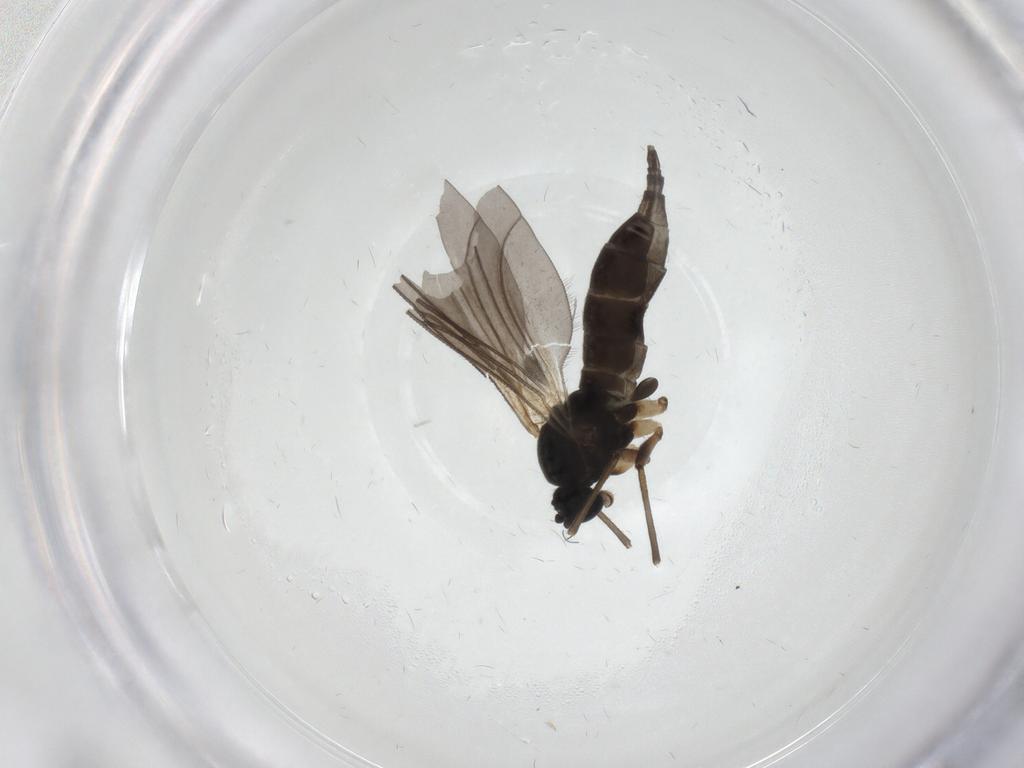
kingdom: Animalia
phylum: Arthropoda
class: Insecta
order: Diptera
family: Sciaridae
